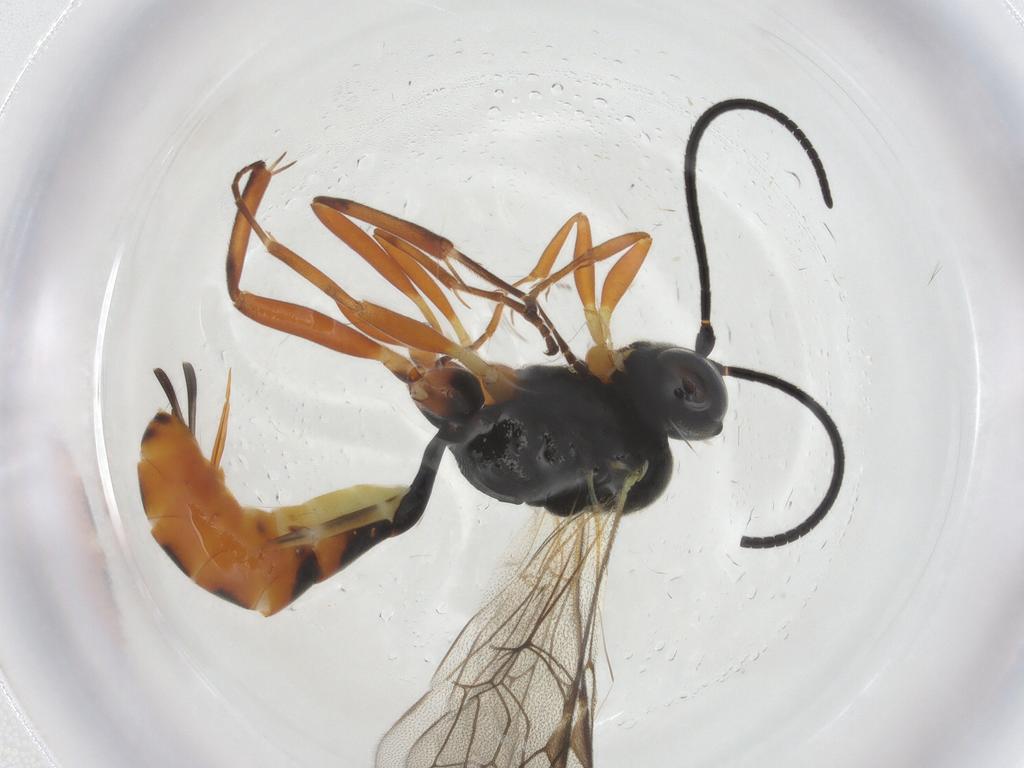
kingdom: Animalia
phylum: Arthropoda
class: Insecta
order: Hymenoptera
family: Ichneumonidae
